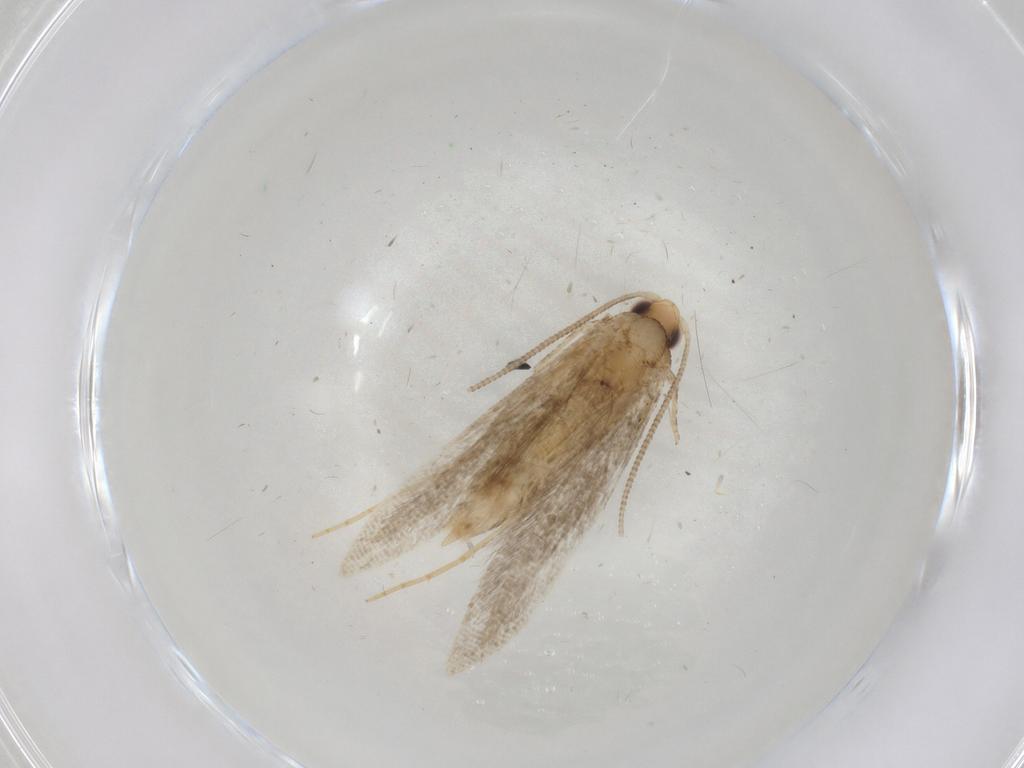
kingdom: Animalia
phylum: Arthropoda
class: Insecta
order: Lepidoptera
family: Tineidae
